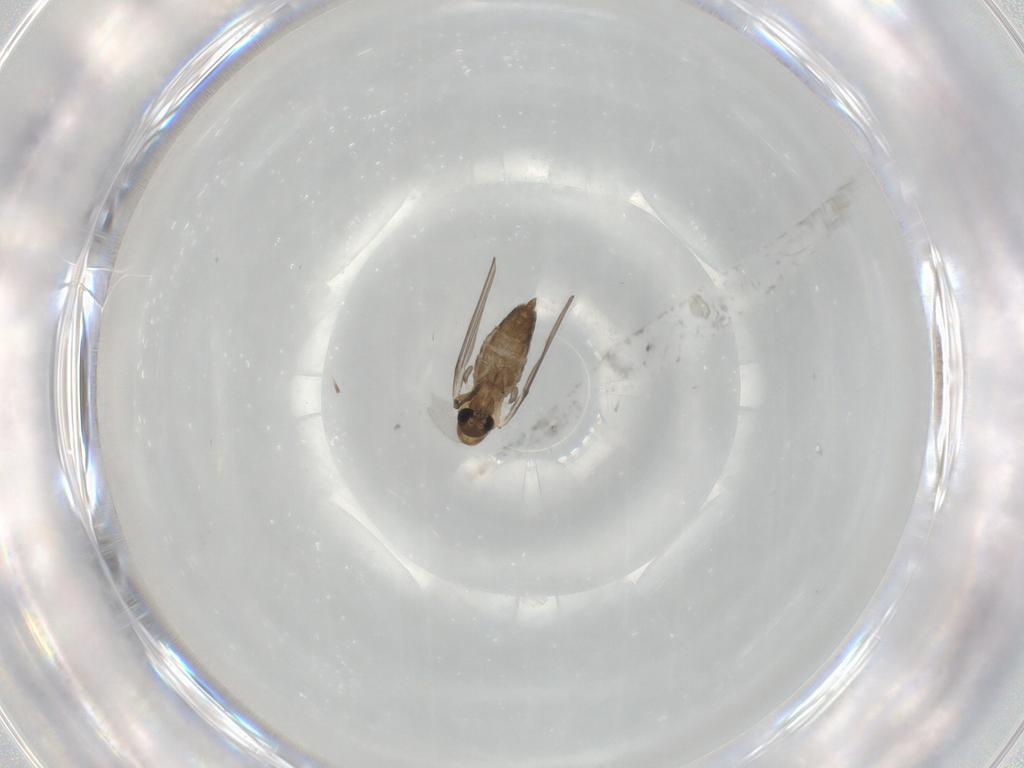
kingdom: Animalia
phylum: Arthropoda
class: Insecta
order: Diptera
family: Psychodidae
